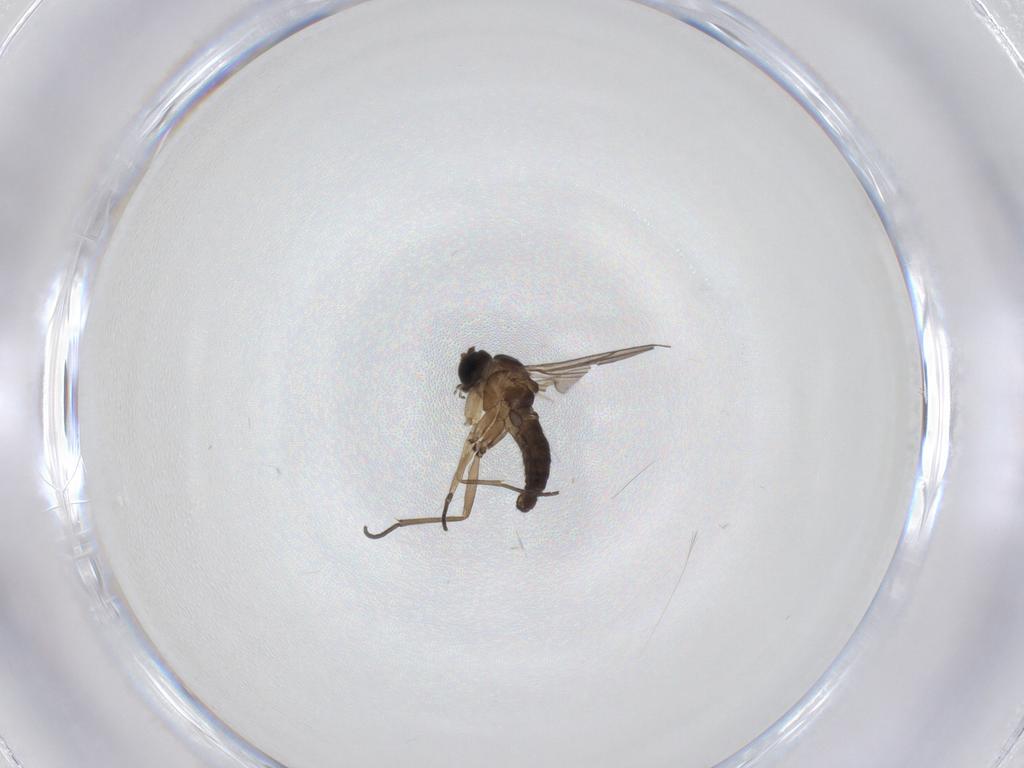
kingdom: Animalia
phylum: Arthropoda
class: Insecta
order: Diptera
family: Sciaridae
